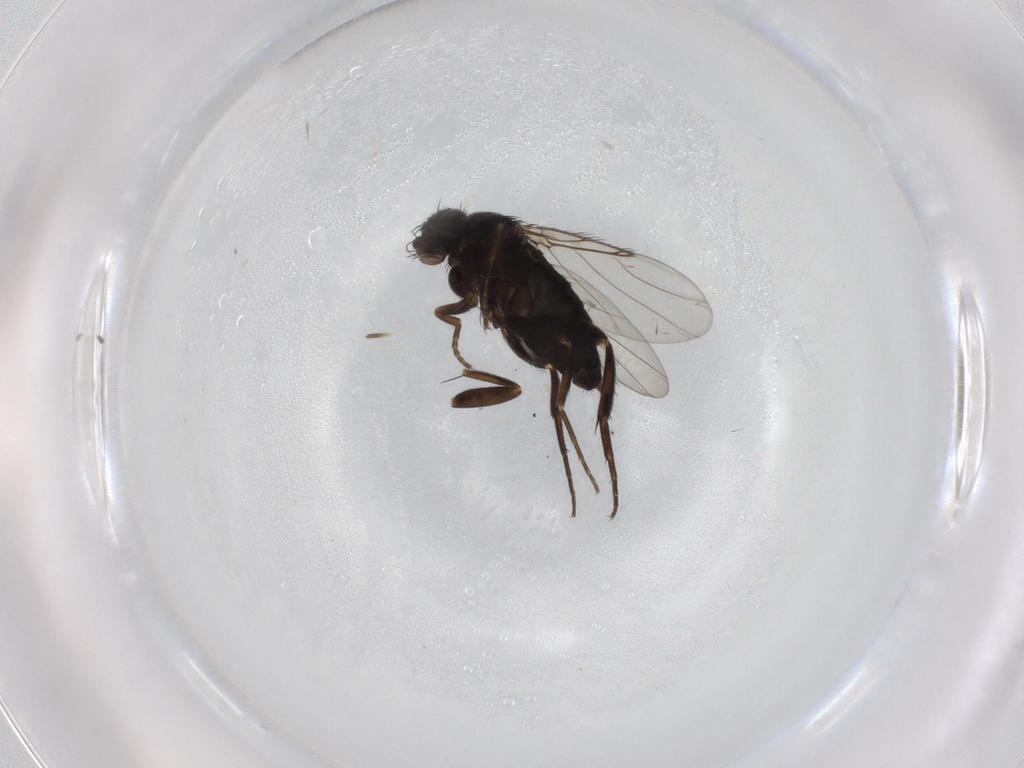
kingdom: Animalia
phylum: Arthropoda
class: Insecta
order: Diptera
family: Phoridae
